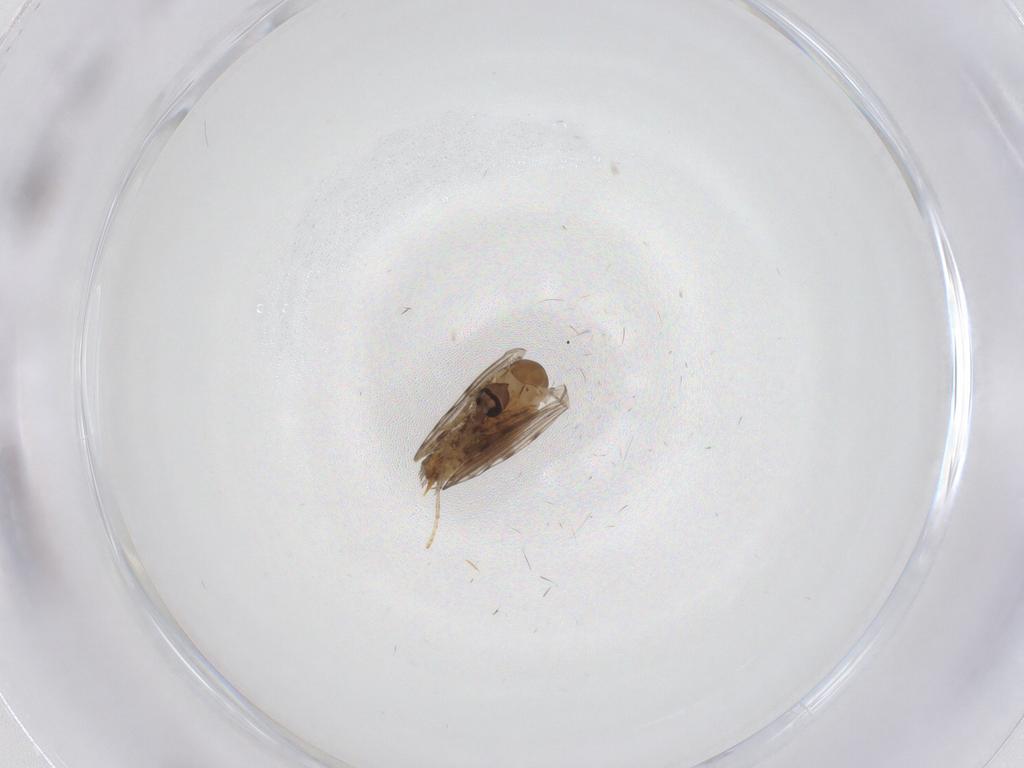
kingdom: Animalia
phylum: Arthropoda
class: Insecta
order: Diptera
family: Psychodidae
